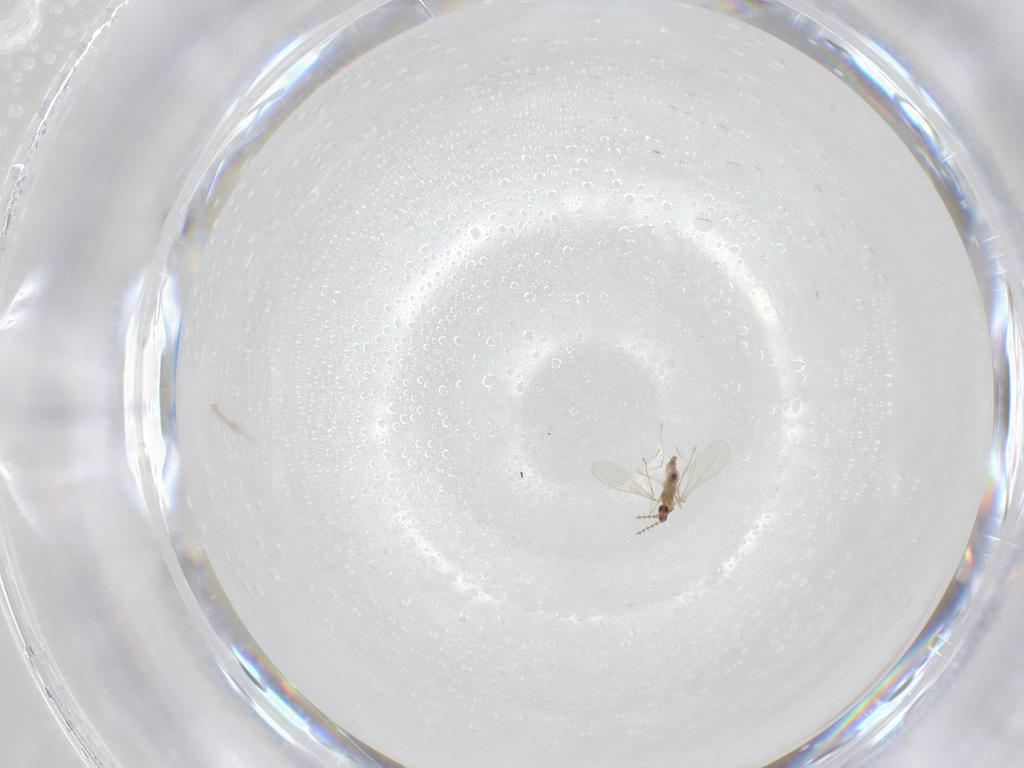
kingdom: Animalia
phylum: Arthropoda
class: Insecta
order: Diptera
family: Cecidomyiidae
